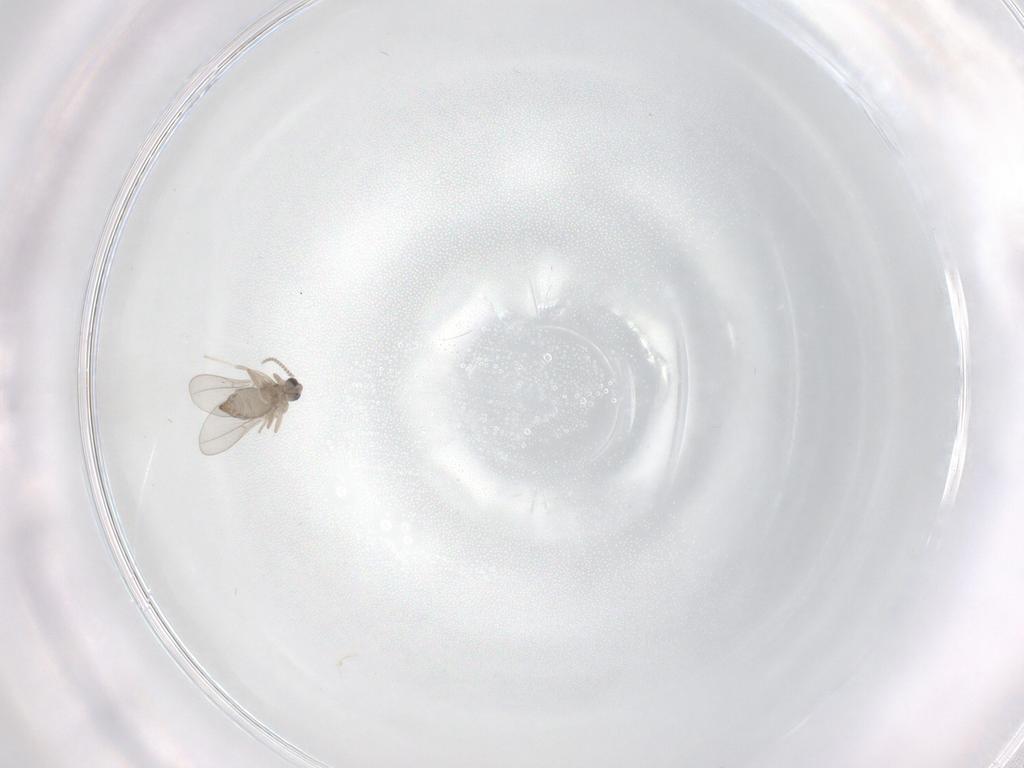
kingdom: Animalia
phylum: Arthropoda
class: Insecta
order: Diptera
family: Cecidomyiidae
